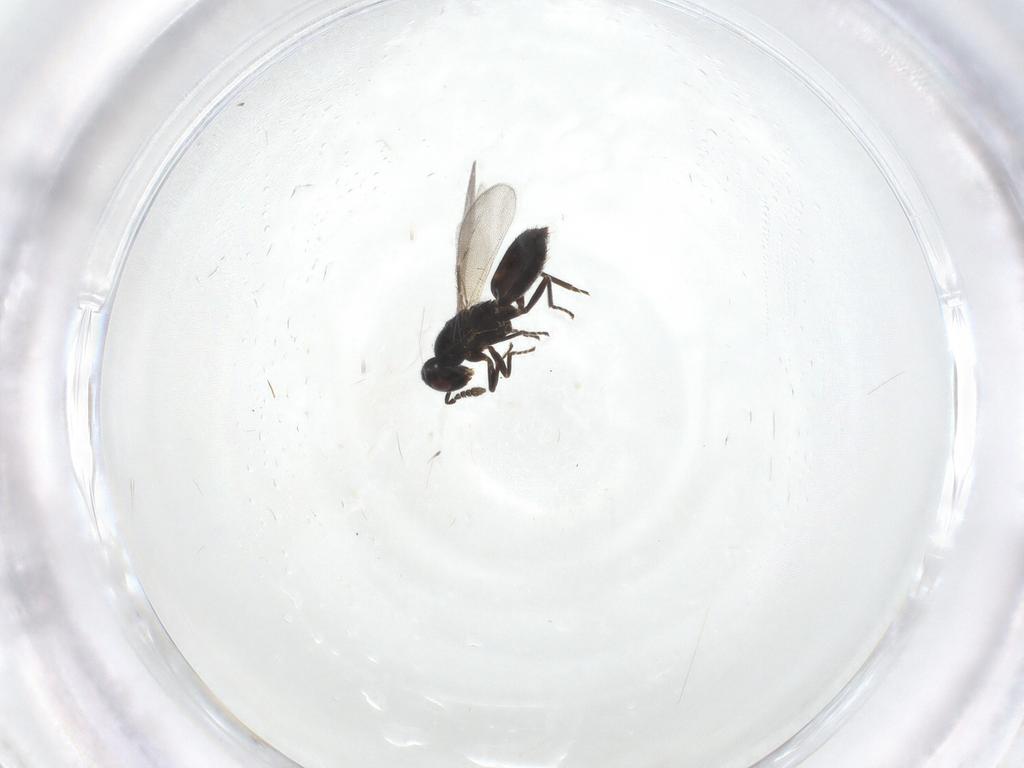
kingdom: Animalia
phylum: Arthropoda
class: Insecta
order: Hymenoptera
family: Eulophidae
